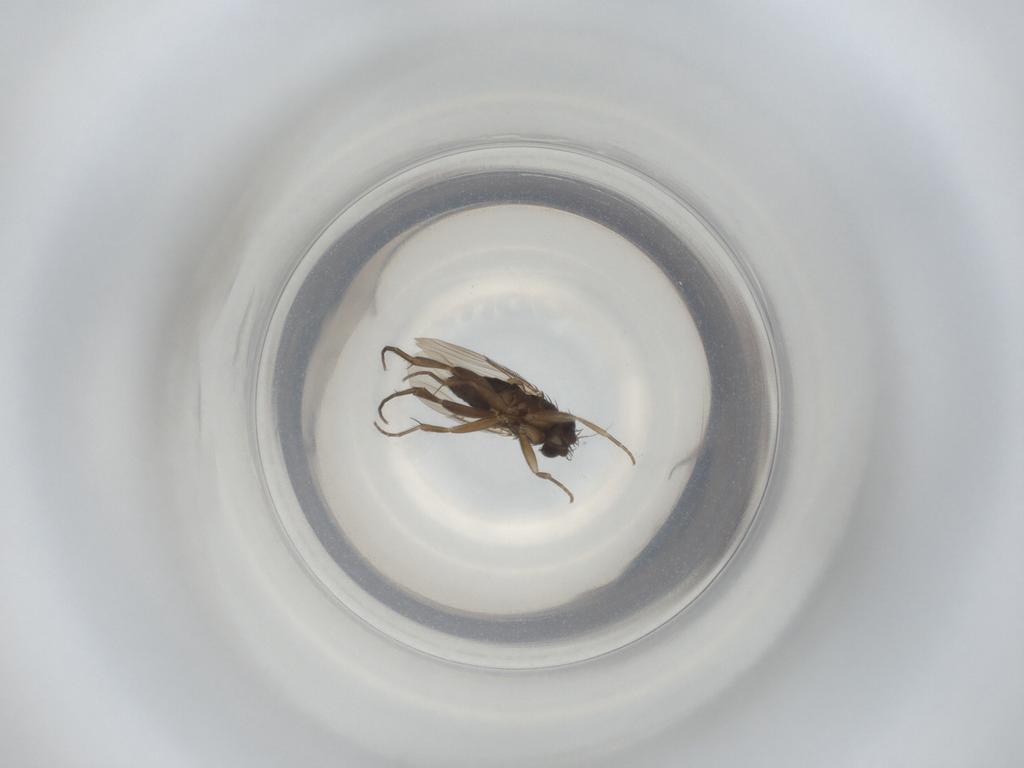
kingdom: Animalia
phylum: Arthropoda
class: Insecta
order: Diptera
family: Phoridae
